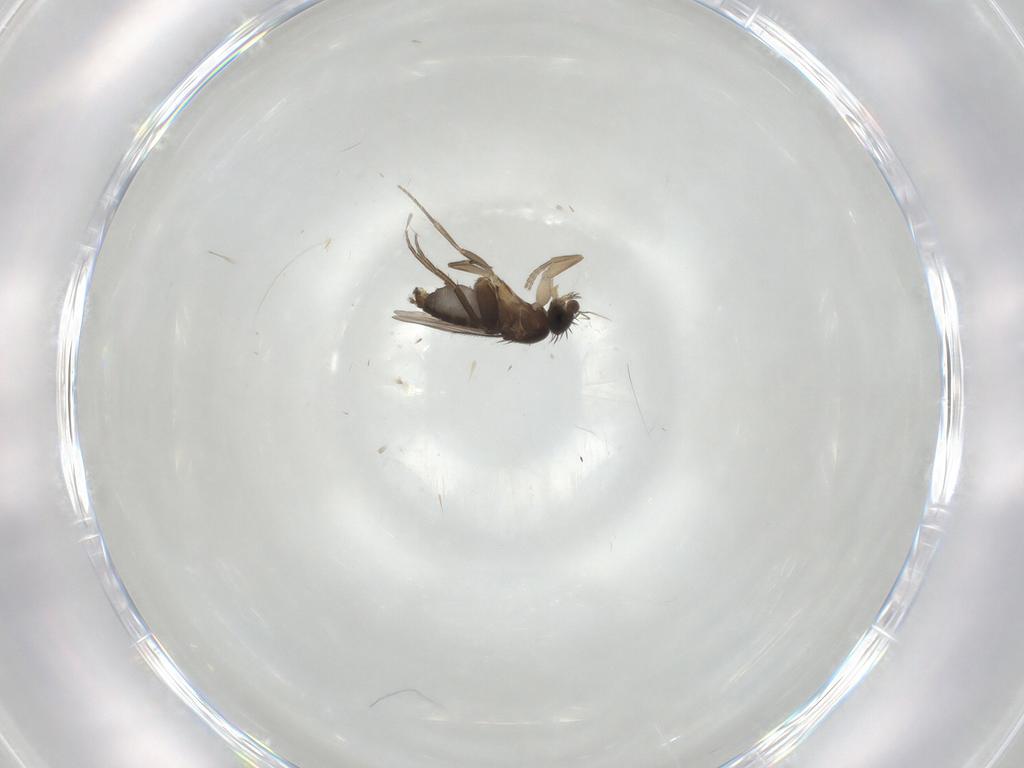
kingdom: Animalia
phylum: Arthropoda
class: Insecta
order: Diptera
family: Phoridae
